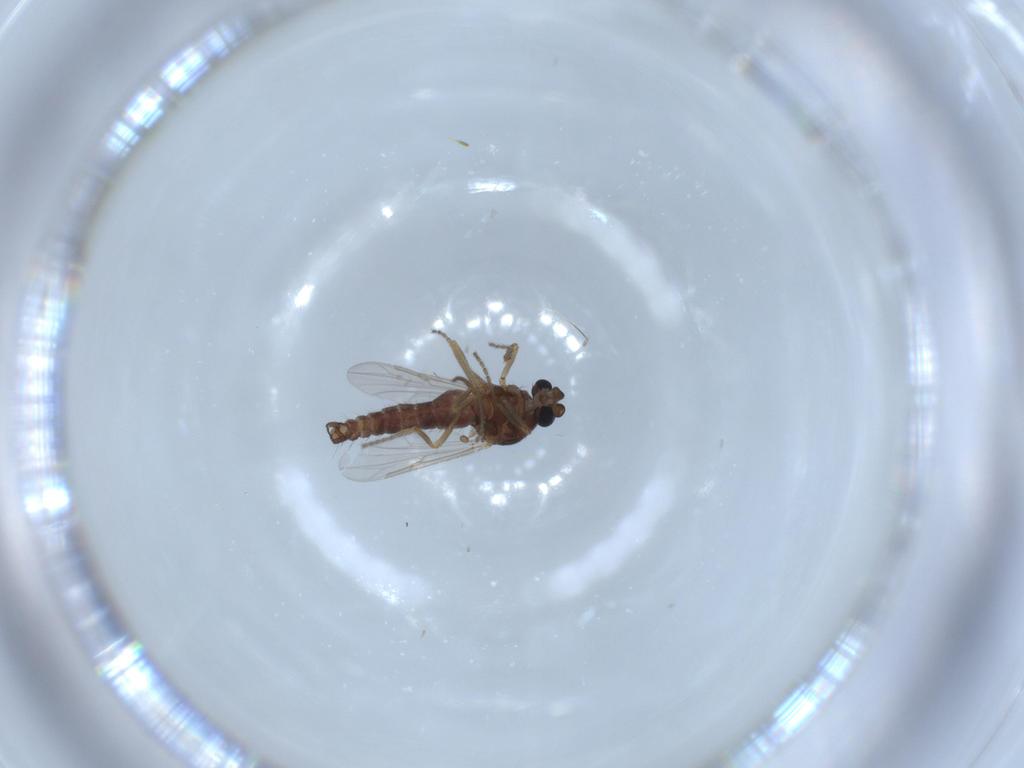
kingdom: Animalia
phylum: Arthropoda
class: Insecta
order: Diptera
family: Ceratopogonidae
